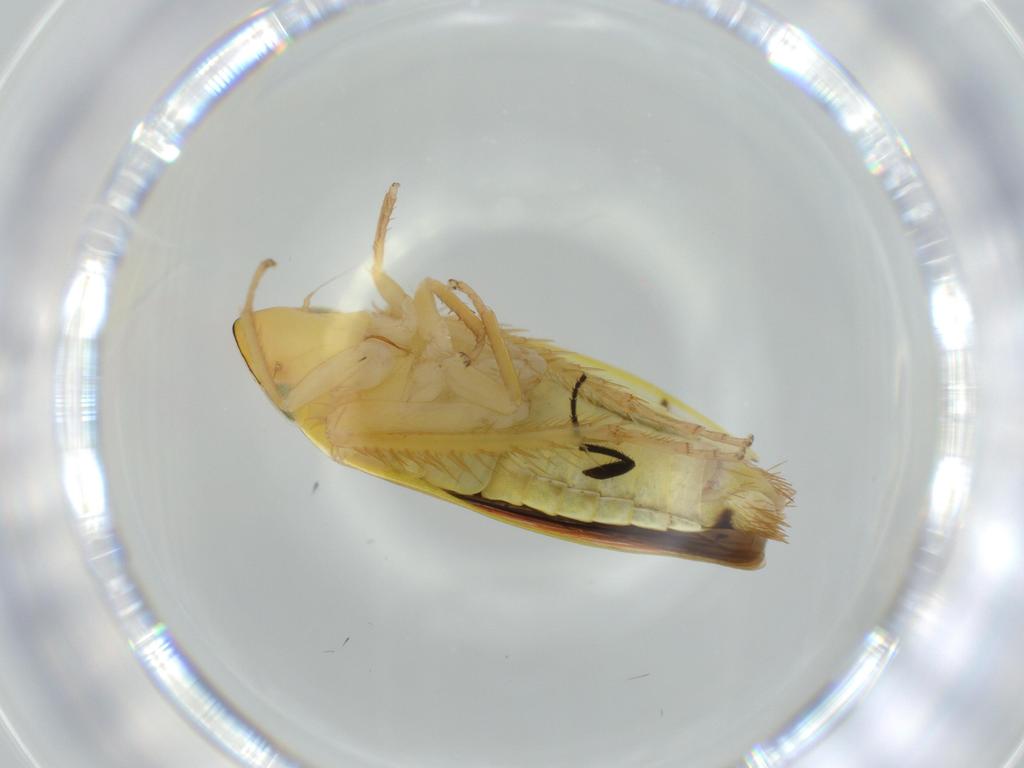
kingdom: Animalia
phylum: Arthropoda
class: Insecta
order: Hemiptera
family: Cicadellidae
